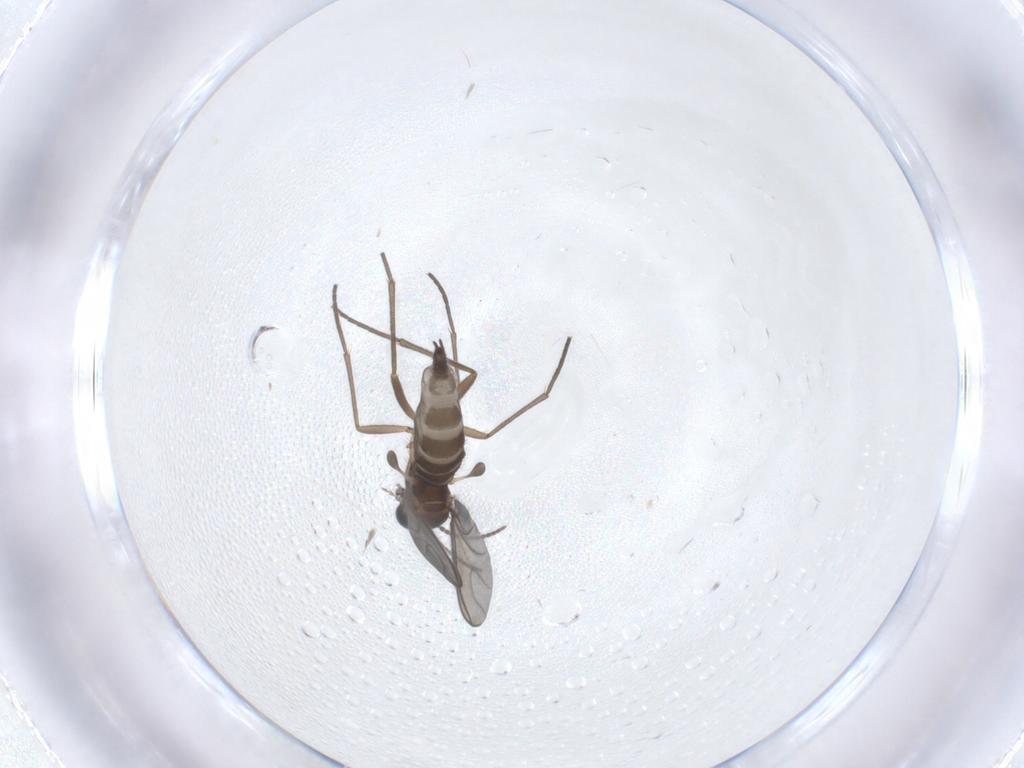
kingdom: Animalia
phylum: Arthropoda
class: Insecta
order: Diptera
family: Sciaridae
